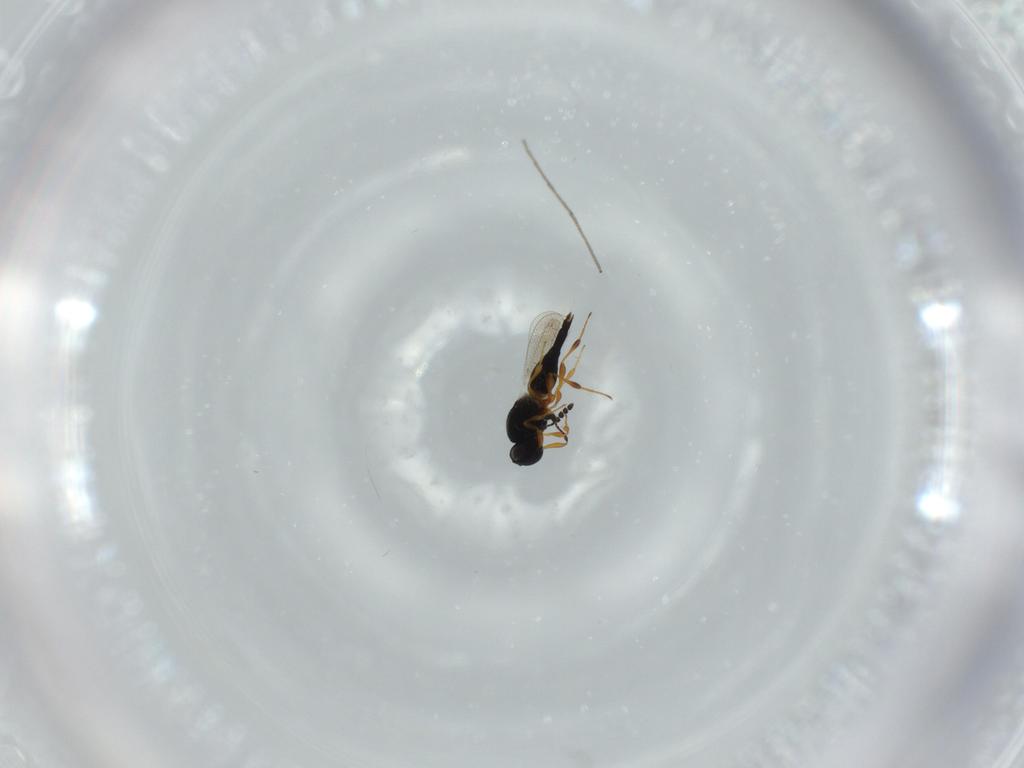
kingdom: Animalia
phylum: Arthropoda
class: Insecta
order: Hymenoptera
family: Platygastridae
